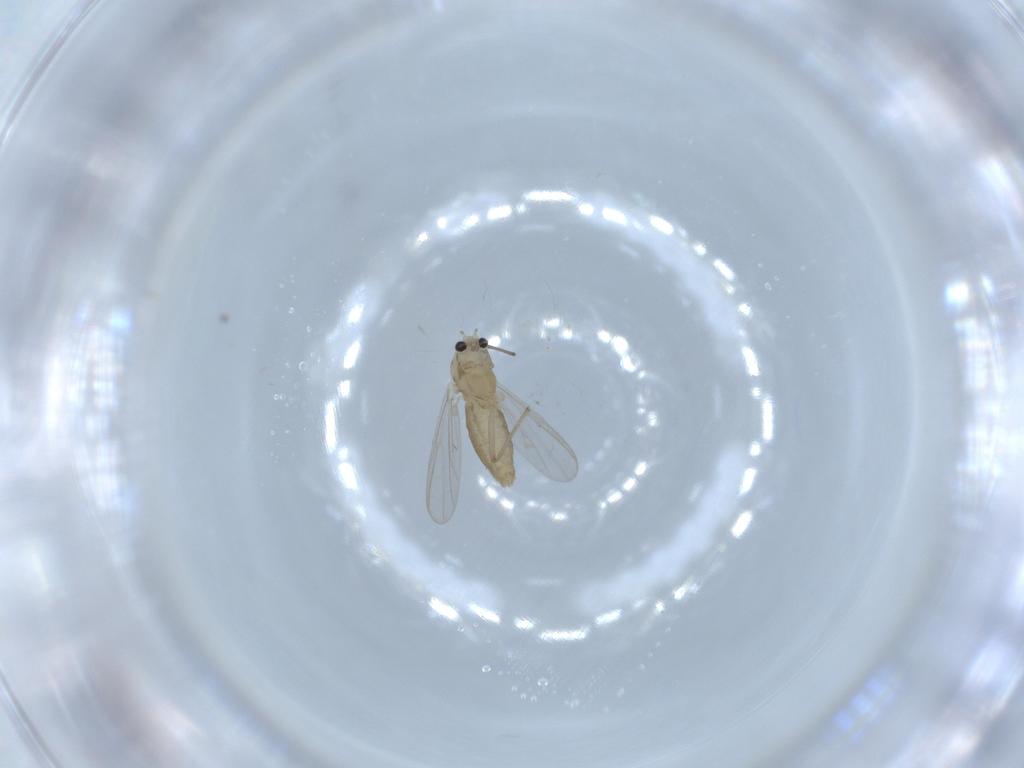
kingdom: Animalia
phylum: Arthropoda
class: Insecta
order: Diptera
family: Chironomidae
